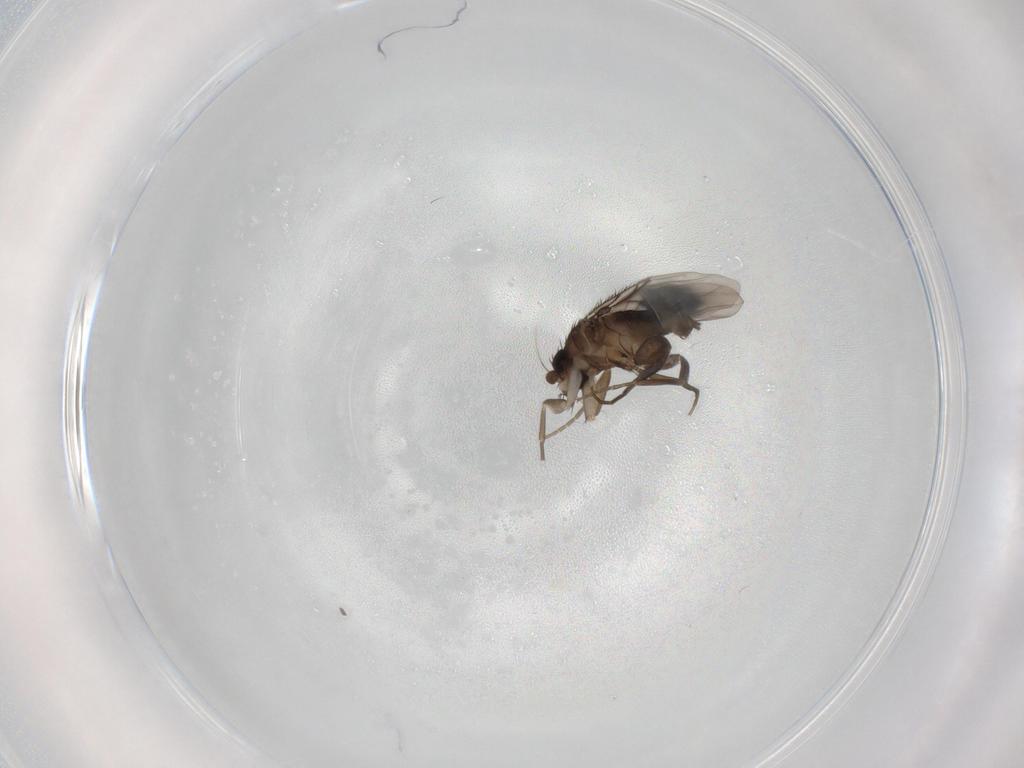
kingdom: Animalia
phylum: Arthropoda
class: Insecta
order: Diptera
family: Phoridae
